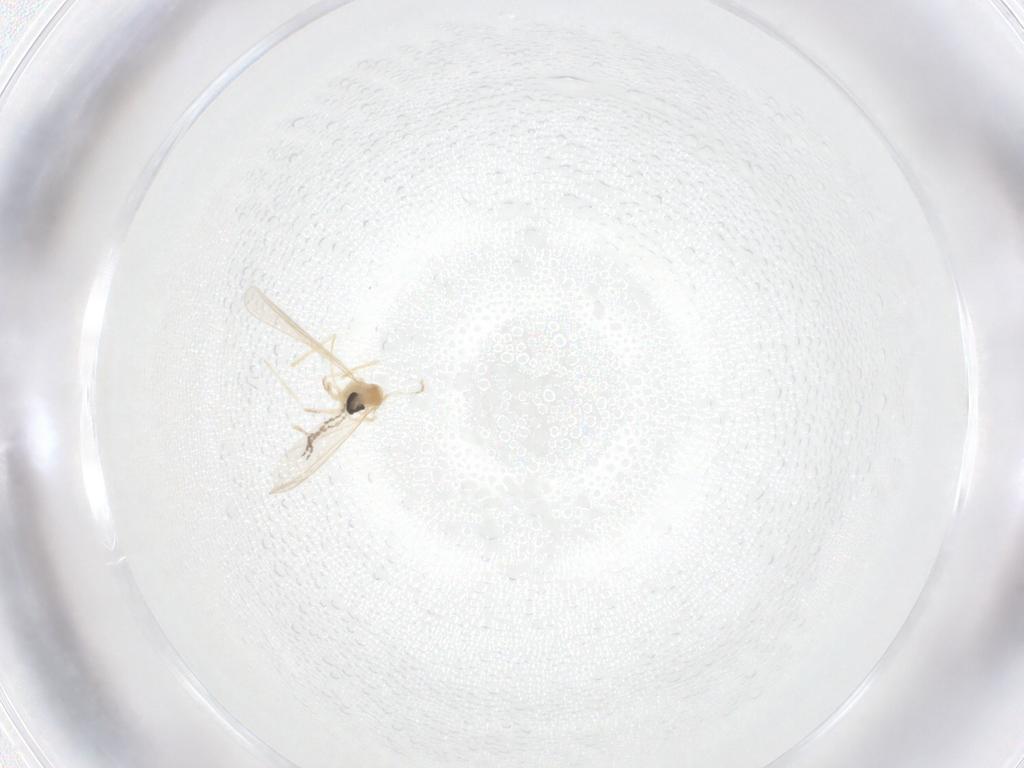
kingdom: Animalia
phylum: Arthropoda
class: Insecta
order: Diptera
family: Cecidomyiidae
